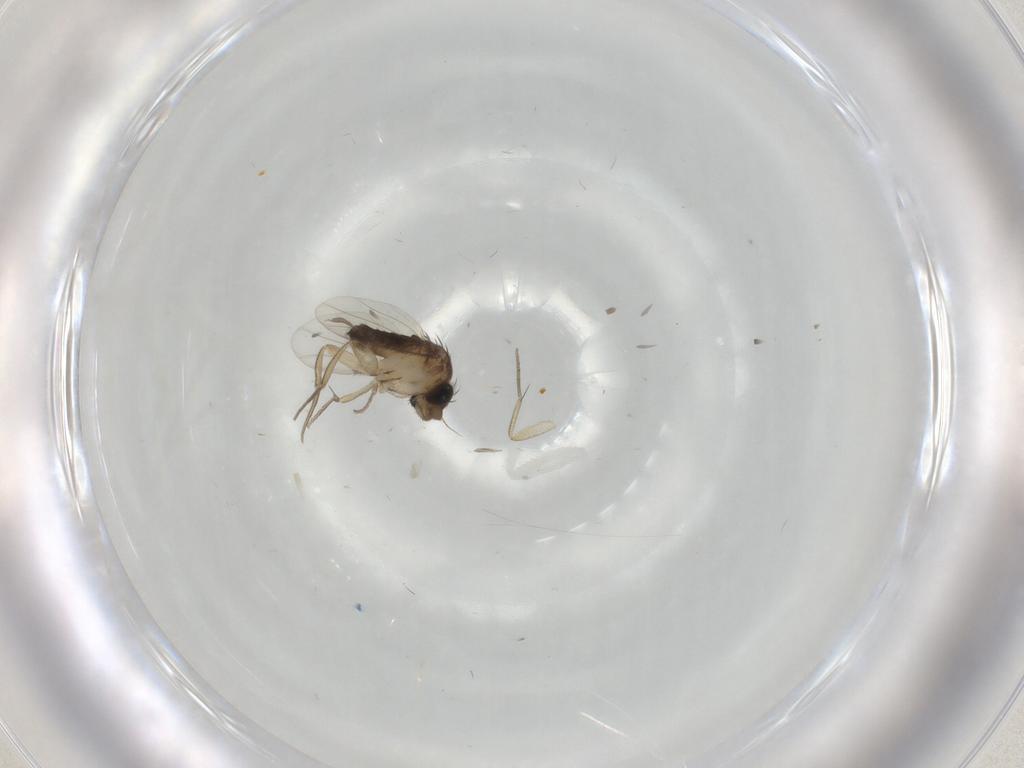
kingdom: Animalia
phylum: Arthropoda
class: Insecta
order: Diptera
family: Phoridae
